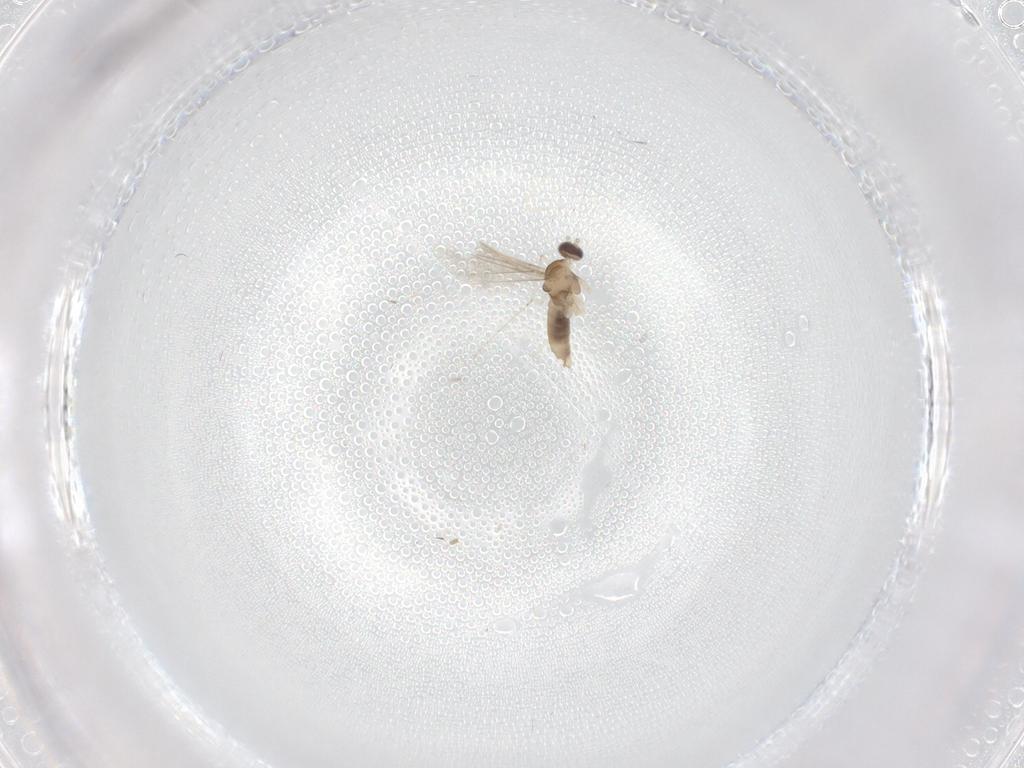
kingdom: Animalia
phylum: Arthropoda
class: Insecta
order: Diptera
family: Cecidomyiidae
